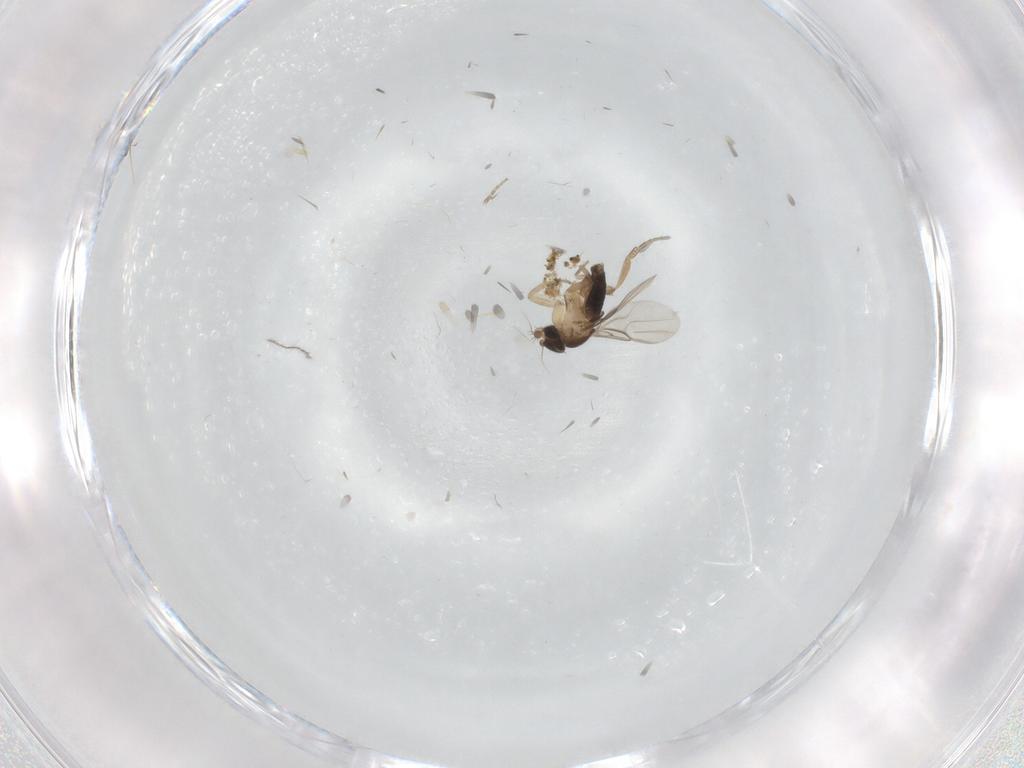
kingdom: Animalia
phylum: Arthropoda
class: Insecta
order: Diptera
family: Phoridae
